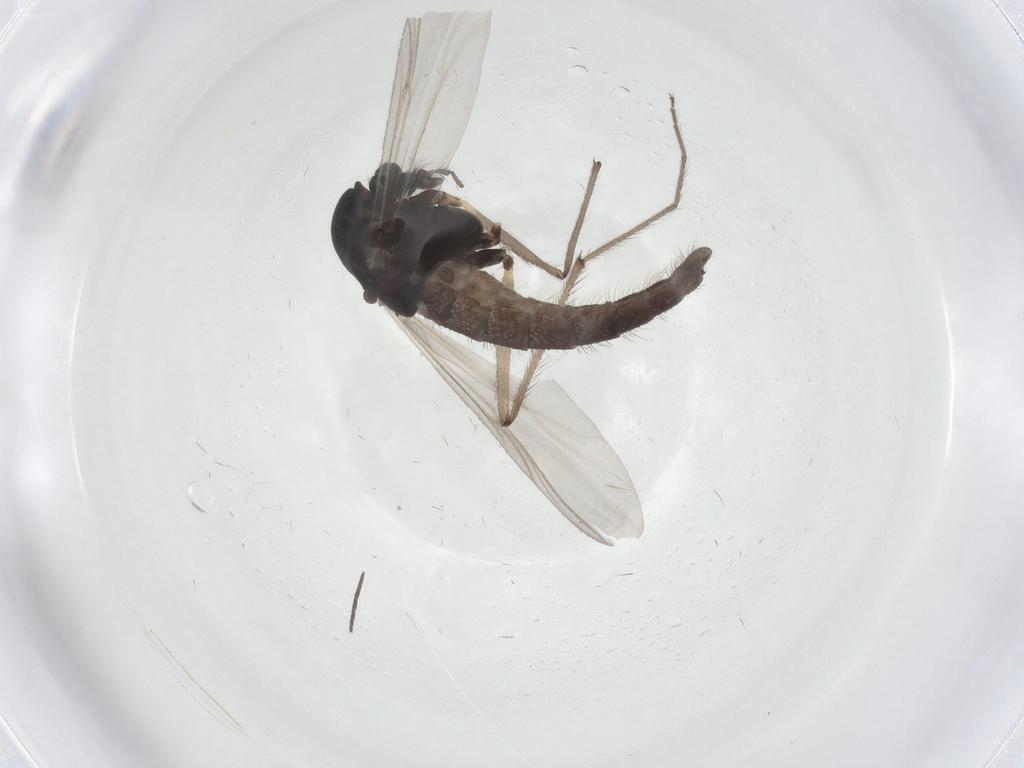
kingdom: Animalia
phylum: Arthropoda
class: Insecta
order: Diptera
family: Chironomidae
